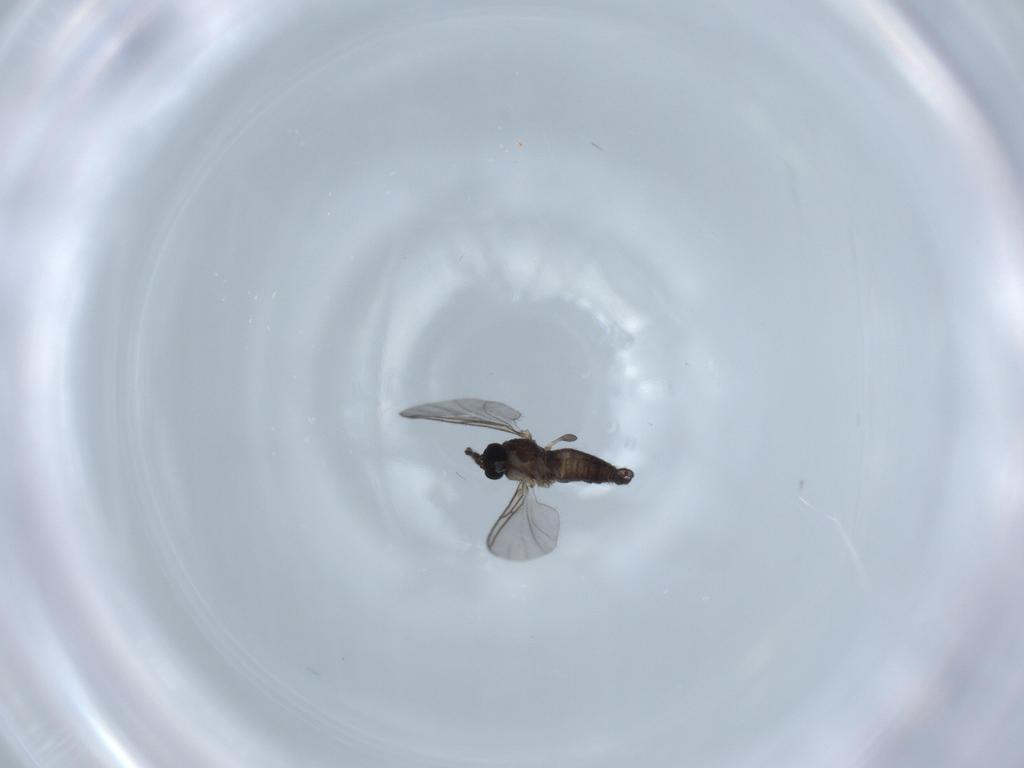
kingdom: Animalia
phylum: Arthropoda
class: Insecta
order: Diptera
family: Sciaridae
